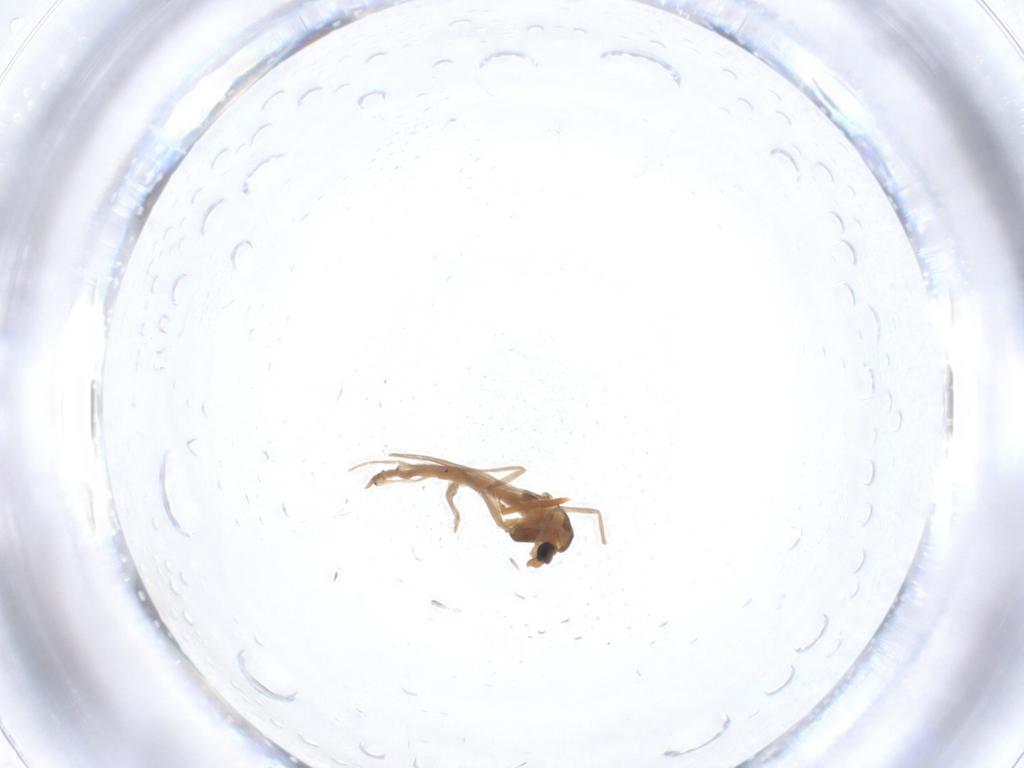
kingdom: Animalia
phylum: Arthropoda
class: Insecta
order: Diptera
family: Chironomidae
